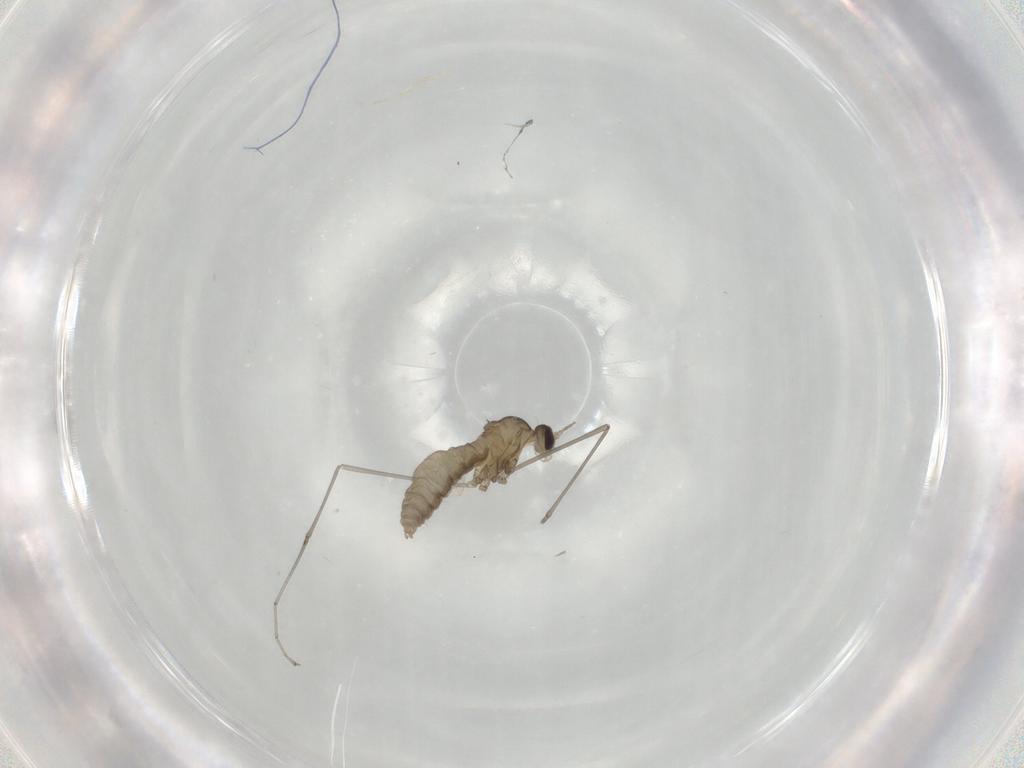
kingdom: Animalia
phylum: Arthropoda
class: Insecta
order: Diptera
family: Cecidomyiidae
